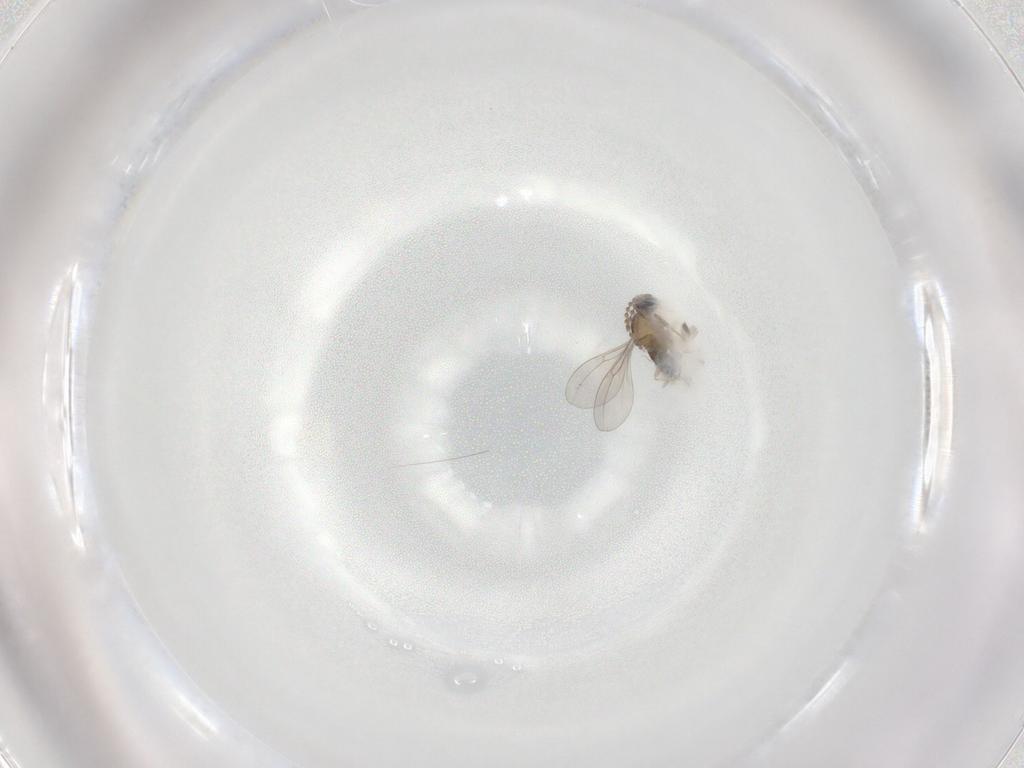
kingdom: Animalia
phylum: Arthropoda
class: Insecta
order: Diptera
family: Cecidomyiidae
